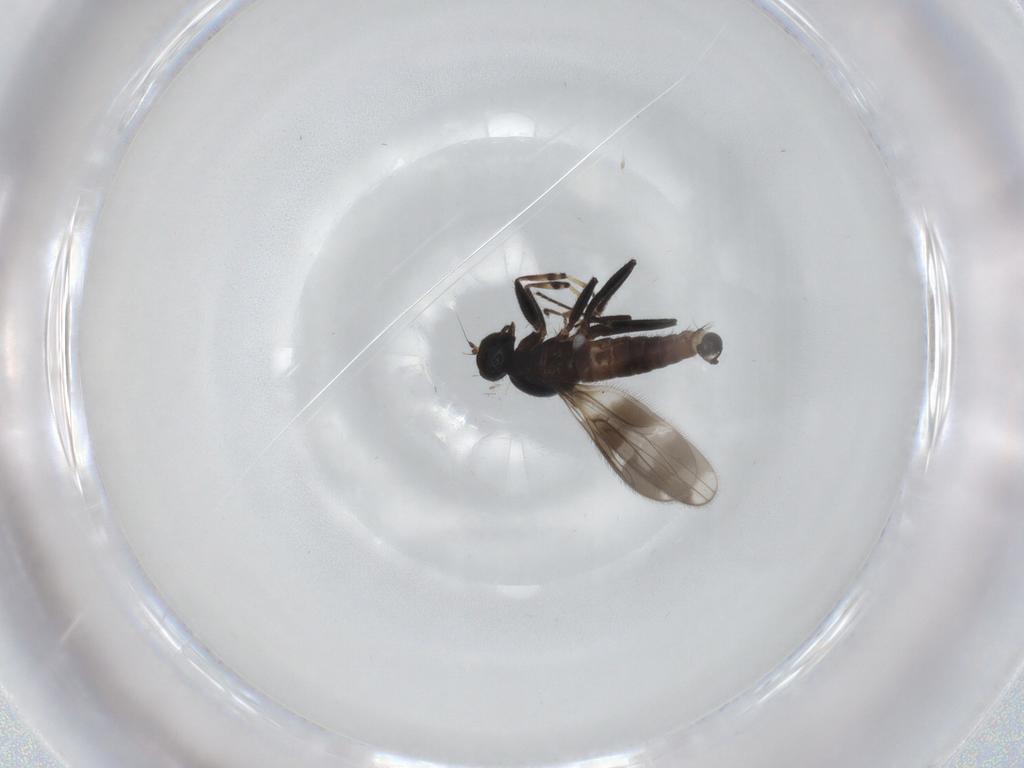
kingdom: Animalia
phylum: Arthropoda
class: Insecta
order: Diptera
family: Hybotidae
